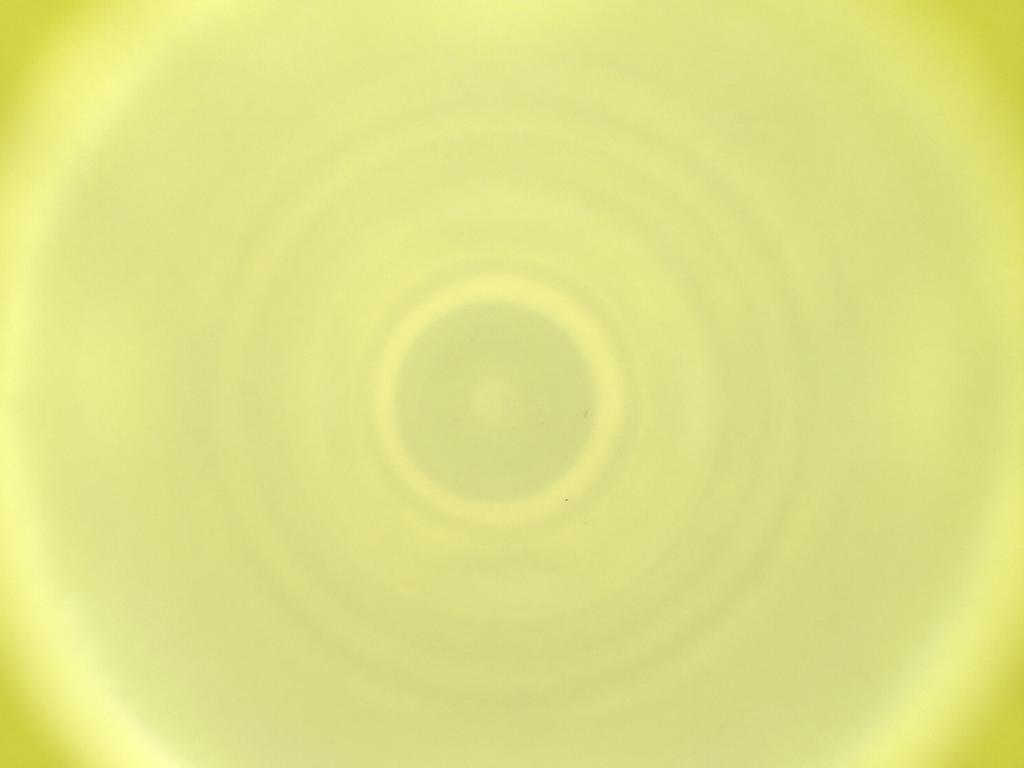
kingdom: Animalia
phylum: Arthropoda
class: Insecta
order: Diptera
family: Cecidomyiidae
